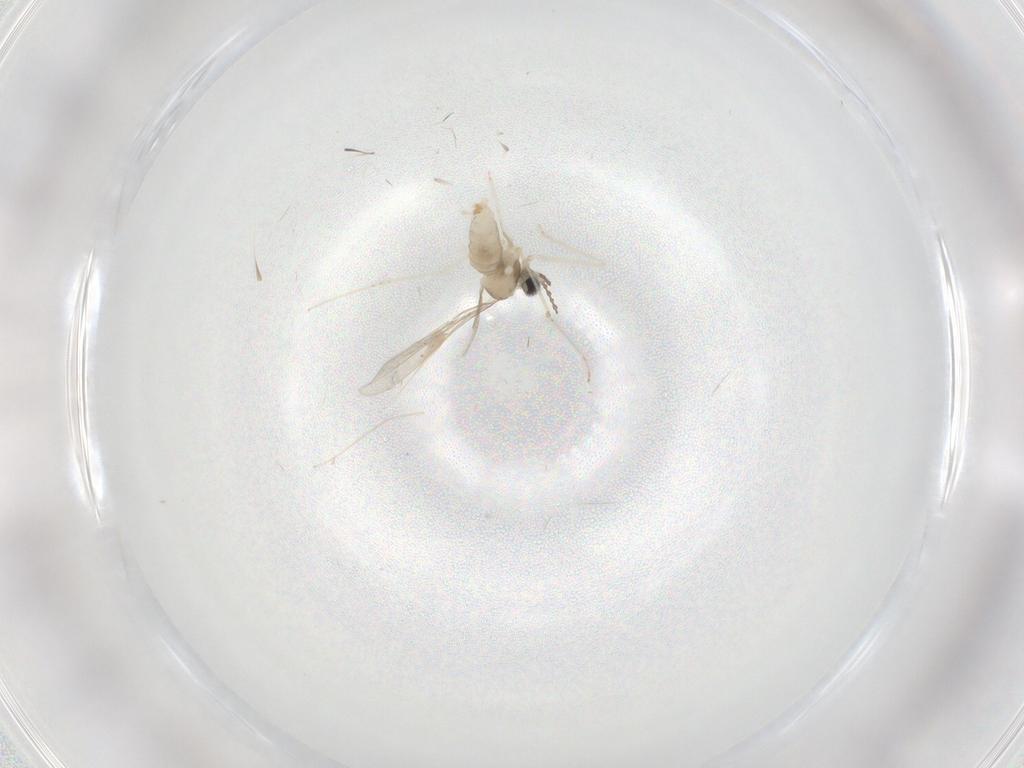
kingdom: Animalia
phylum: Arthropoda
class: Insecta
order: Diptera
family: Cecidomyiidae
